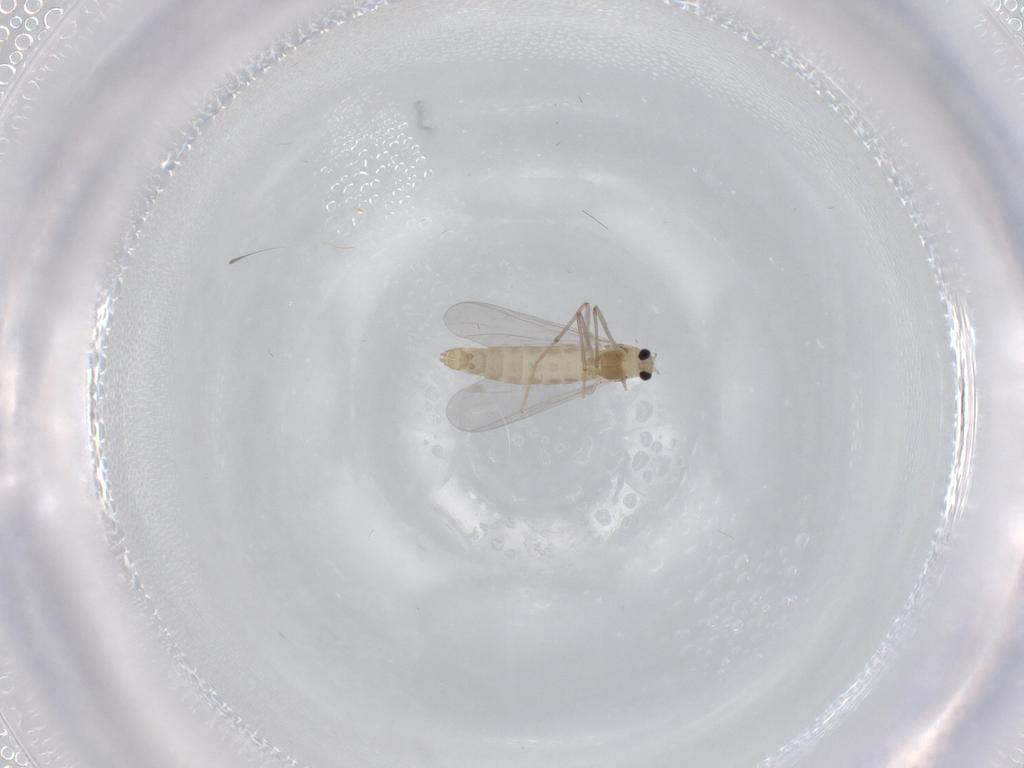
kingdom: Animalia
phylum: Arthropoda
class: Insecta
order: Diptera
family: Chironomidae
